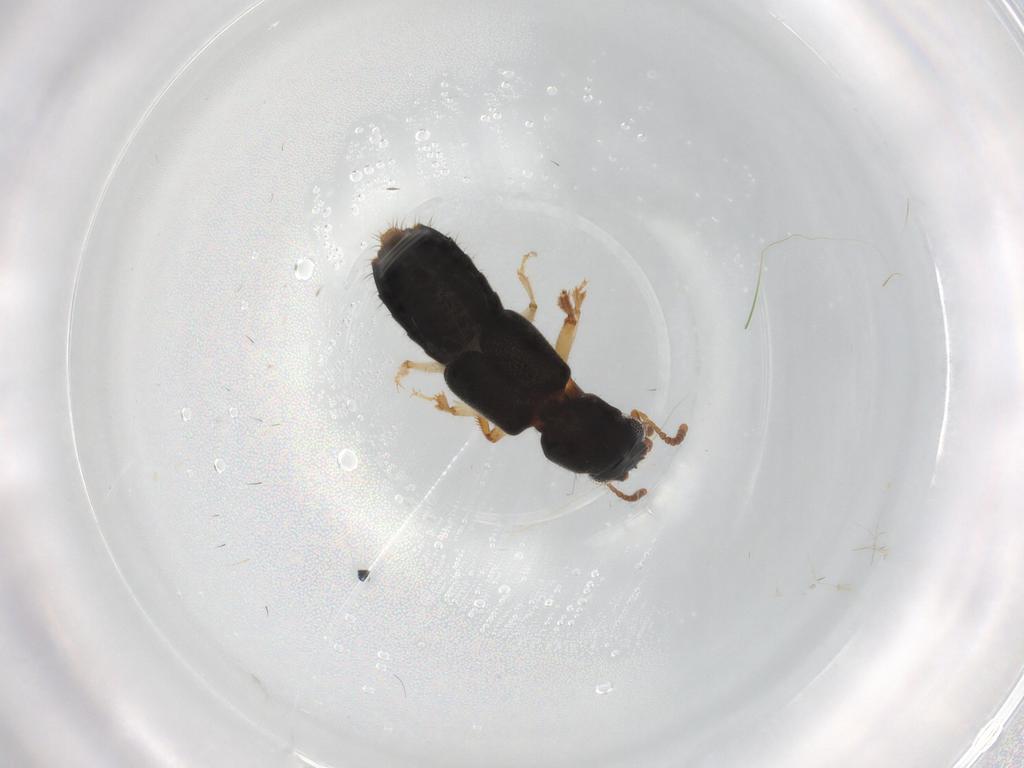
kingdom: Animalia
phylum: Arthropoda
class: Insecta
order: Coleoptera
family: Staphylinidae
